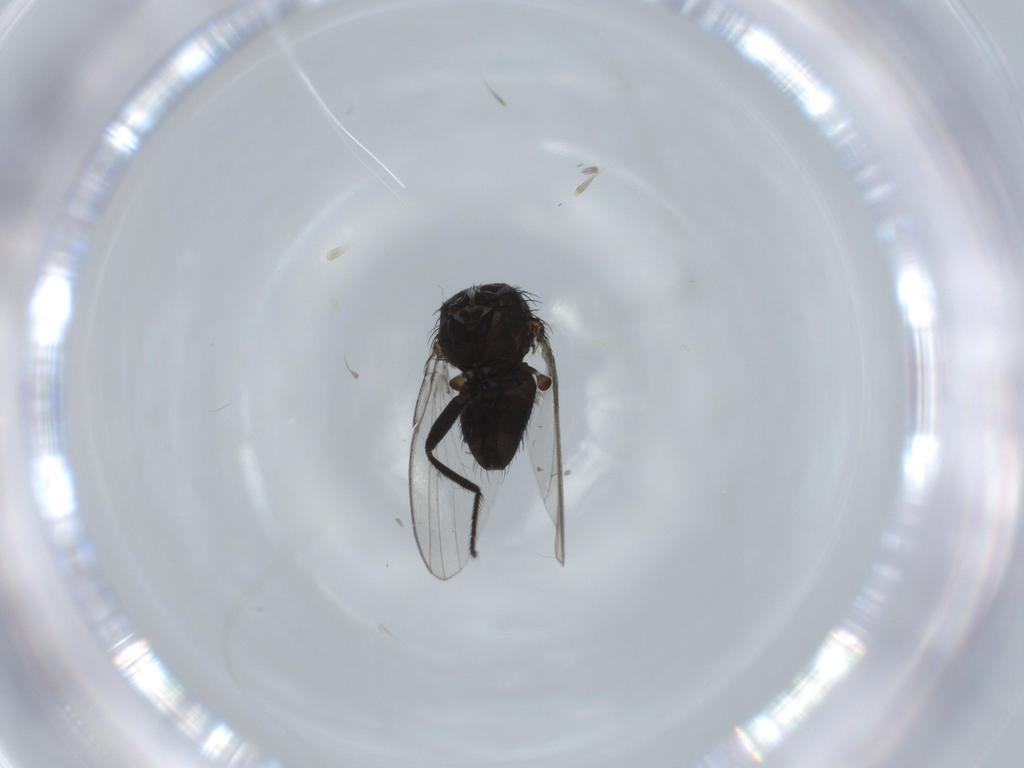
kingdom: Animalia
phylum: Arthropoda
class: Insecta
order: Diptera
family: Milichiidae
